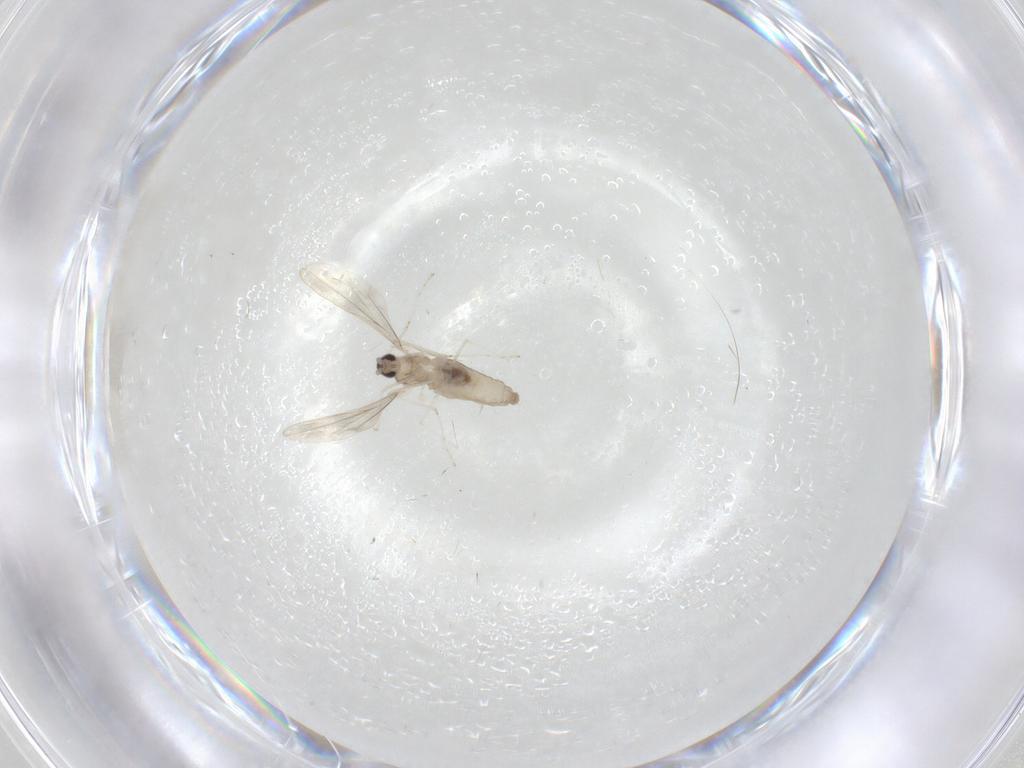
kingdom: Animalia
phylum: Arthropoda
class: Insecta
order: Diptera
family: Cecidomyiidae
